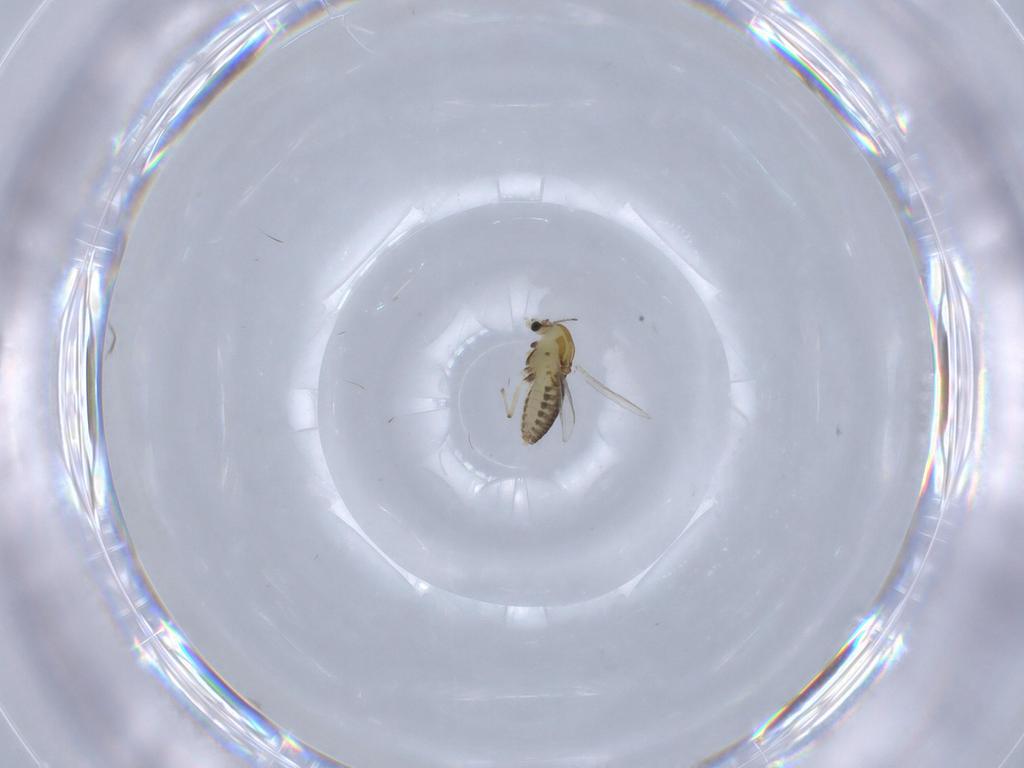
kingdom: Animalia
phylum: Arthropoda
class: Insecta
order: Diptera
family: Chironomidae
